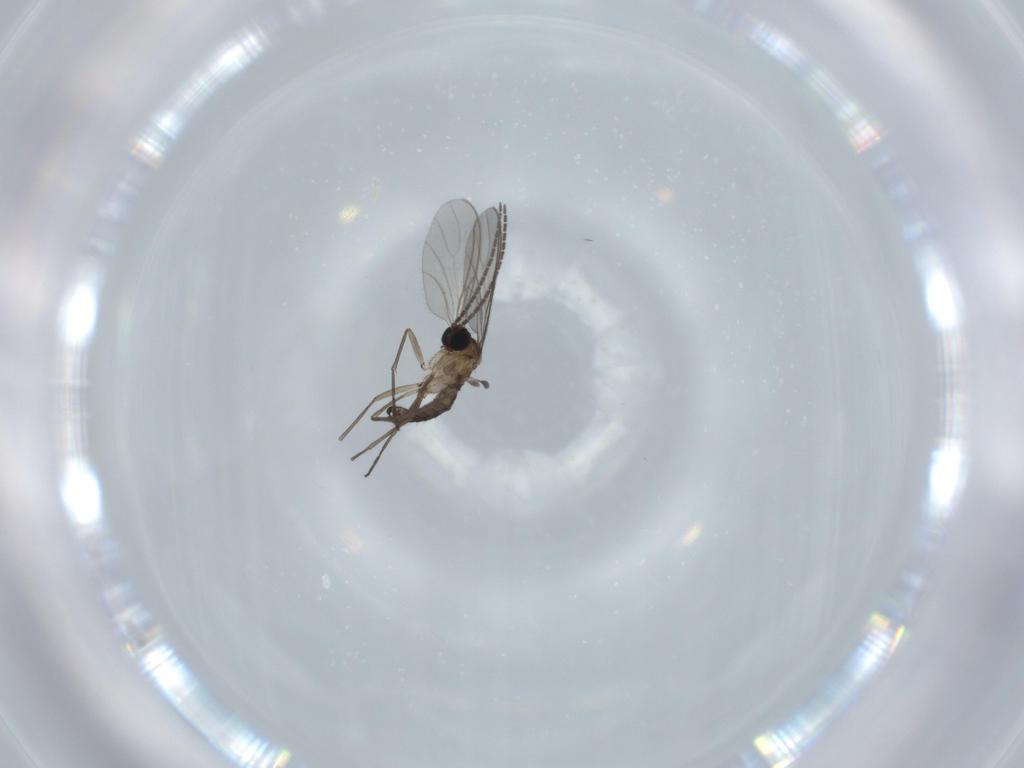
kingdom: Animalia
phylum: Arthropoda
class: Insecta
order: Diptera
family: Sciaridae
